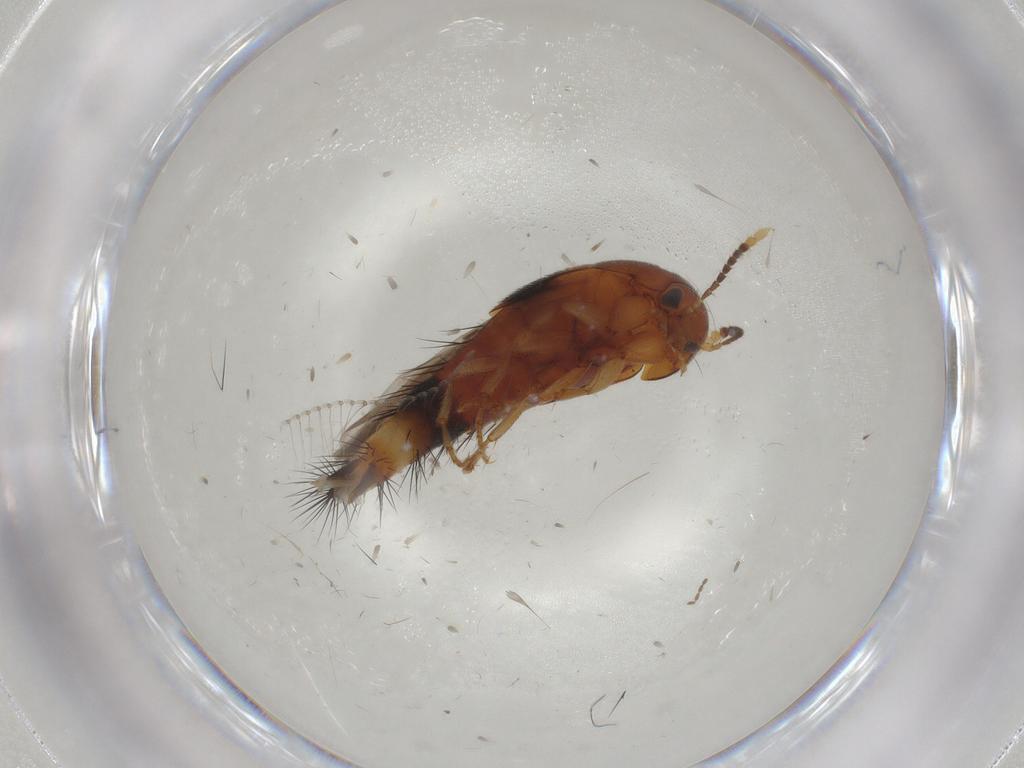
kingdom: Animalia
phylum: Arthropoda
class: Insecta
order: Coleoptera
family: Staphylinidae
